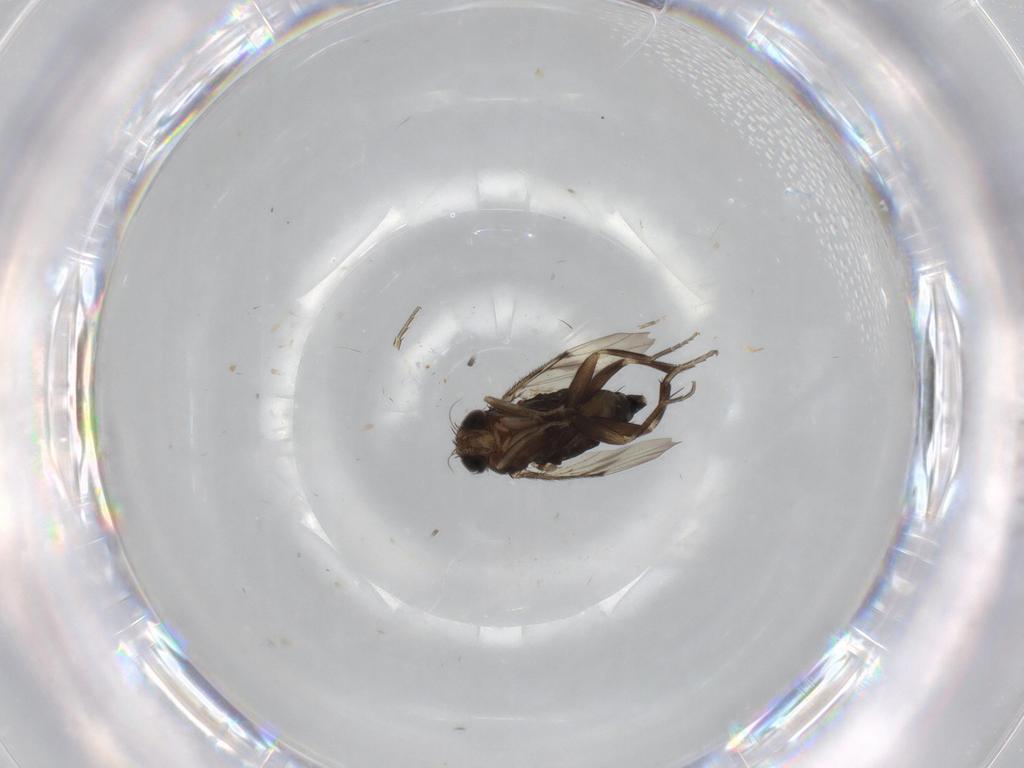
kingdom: Animalia
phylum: Arthropoda
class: Insecta
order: Diptera
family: Phoridae
